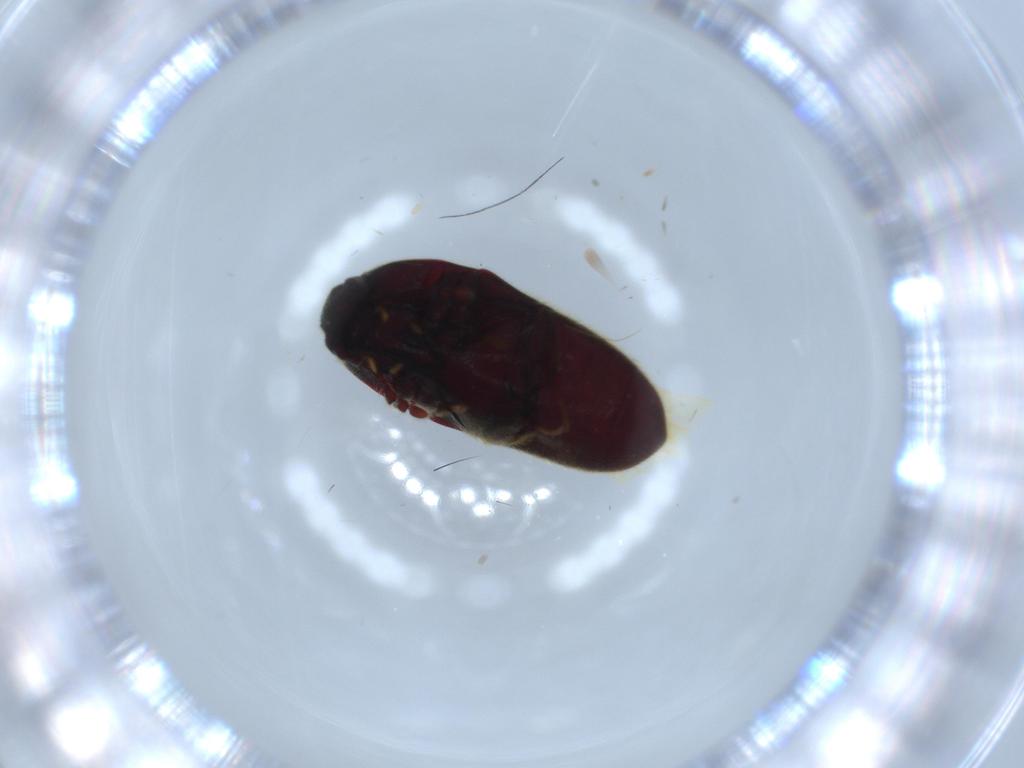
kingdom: Animalia
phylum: Arthropoda
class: Insecta
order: Coleoptera
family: Throscidae
